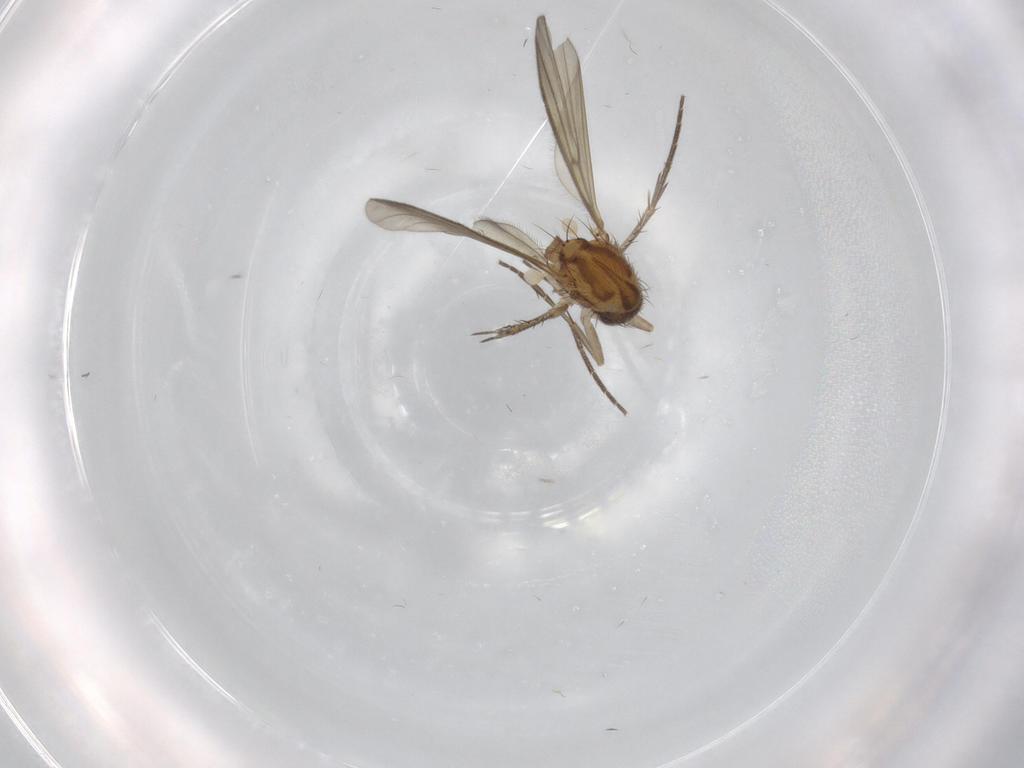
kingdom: Animalia
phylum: Arthropoda
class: Insecta
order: Diptera
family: Mycetophilidae
